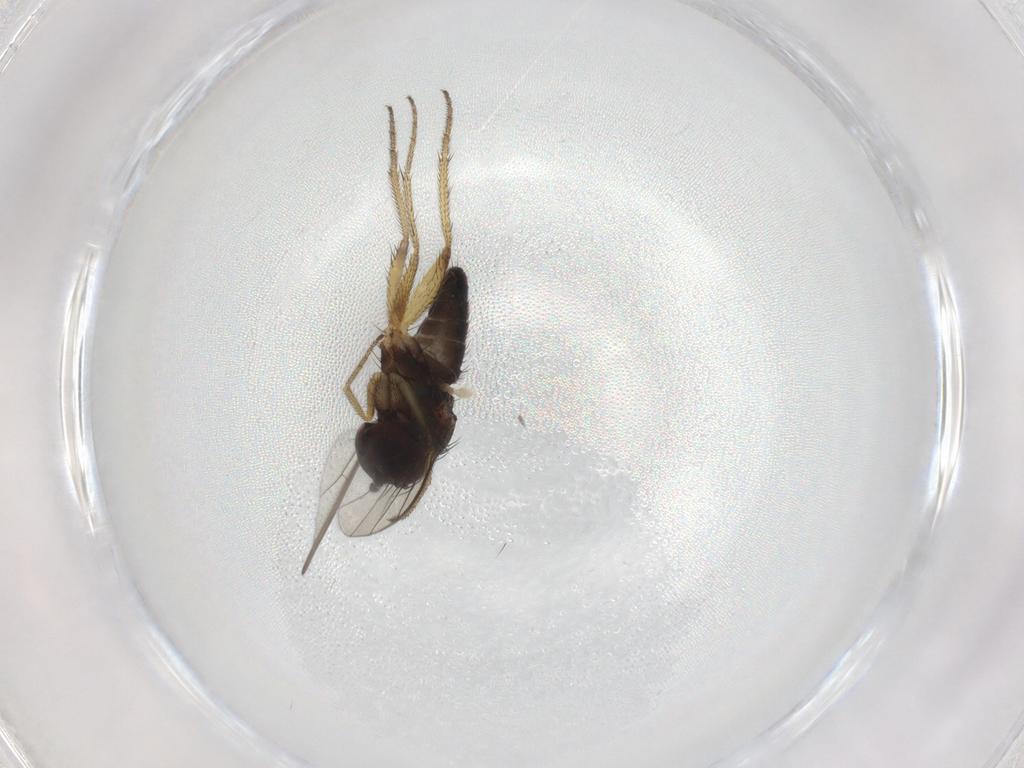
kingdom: Animalia
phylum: Arthropoda
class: Insecta
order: Diptera
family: Dolichopodidae
